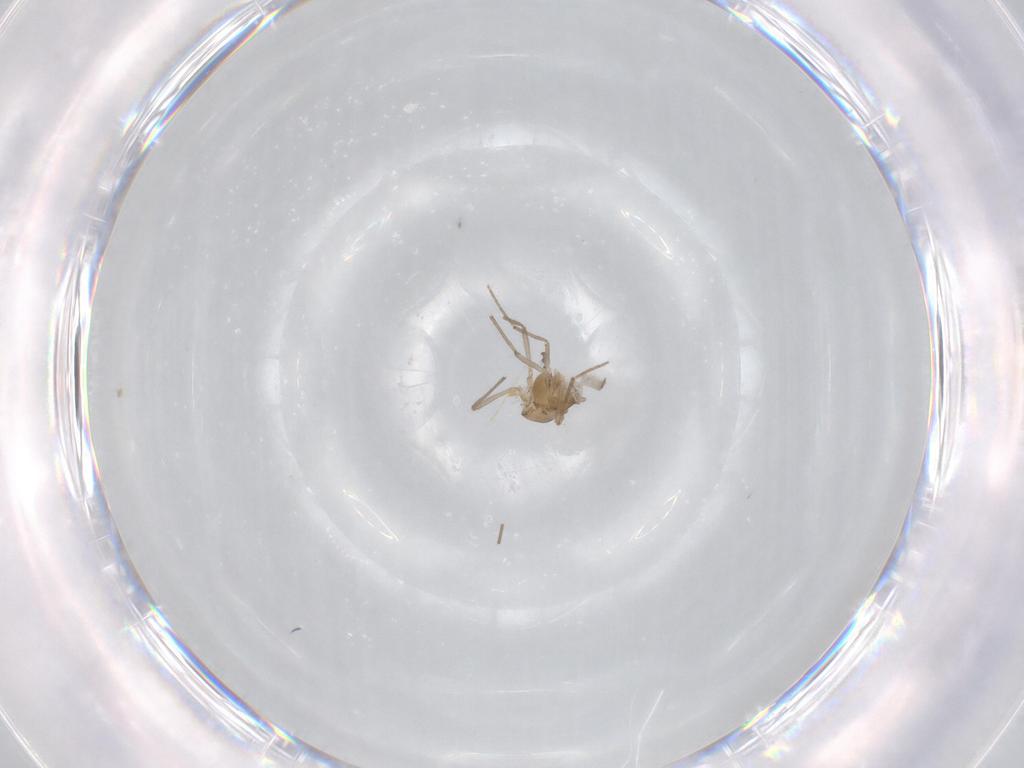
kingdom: Animalia
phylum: Arthropoda
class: Insecta
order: Diptera
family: Chironomidae
